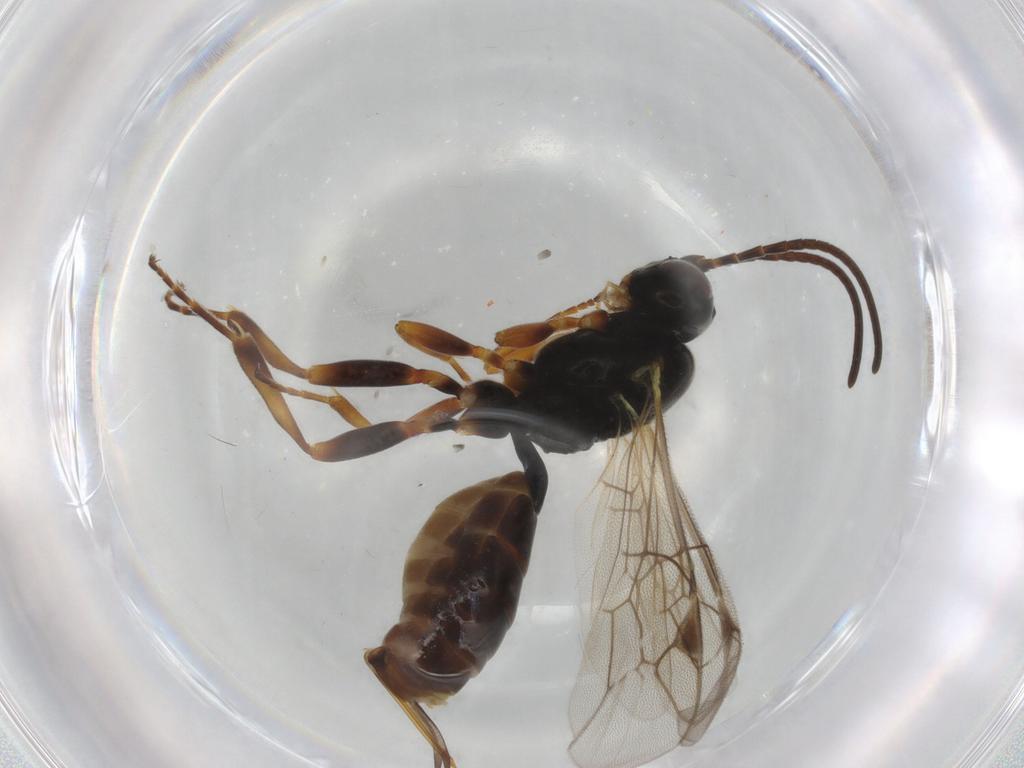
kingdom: Animalia
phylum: Arthropoda
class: Insecta
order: Hymenoptera
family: Ichneumonidae
